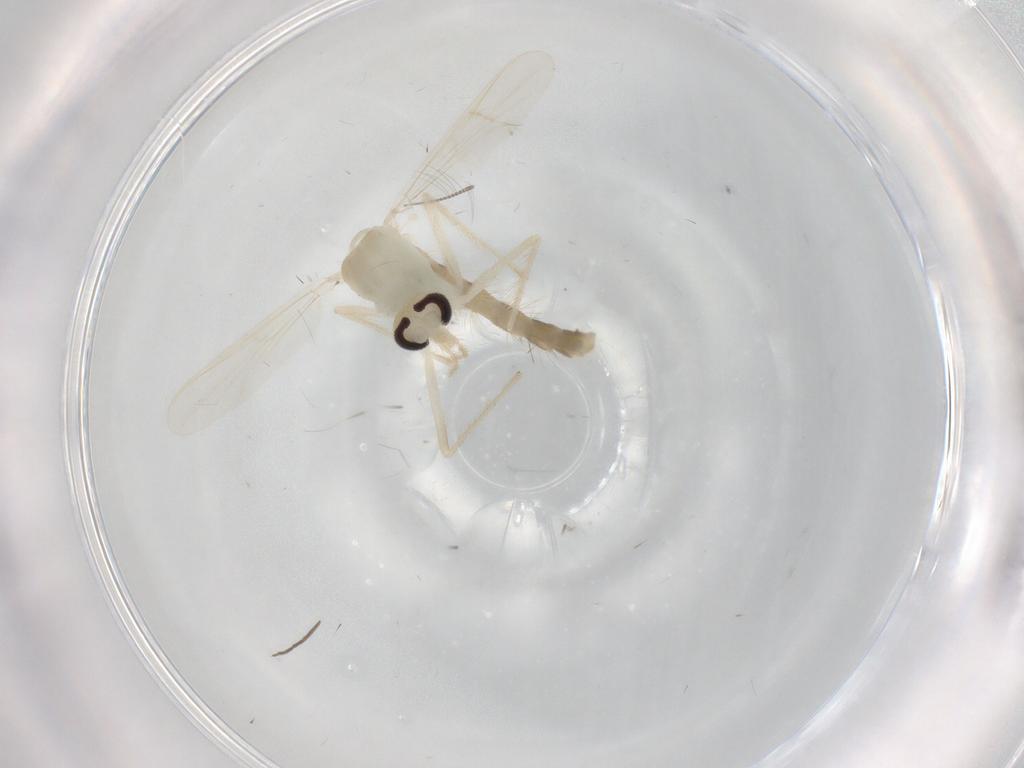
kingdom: Animalia
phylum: Arthropoda
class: Insecta
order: Diptera
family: Chironomidae
